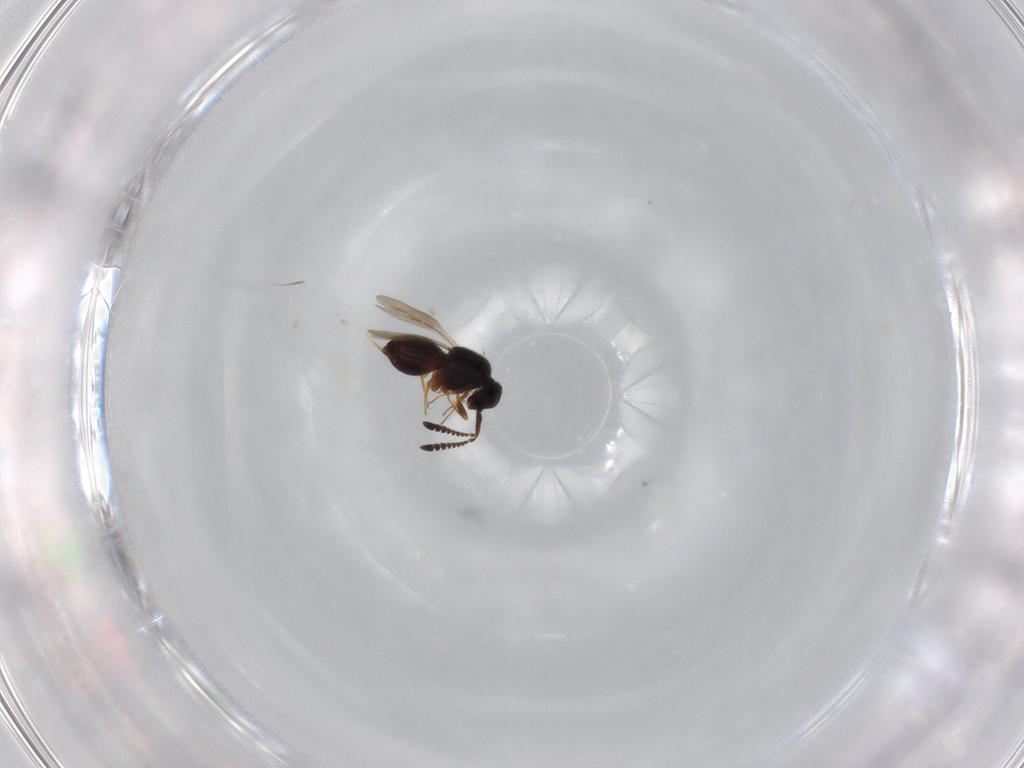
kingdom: Animalia
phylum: Arthropoda
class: Insecta
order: Hymenoptera
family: Ceraphronidae
